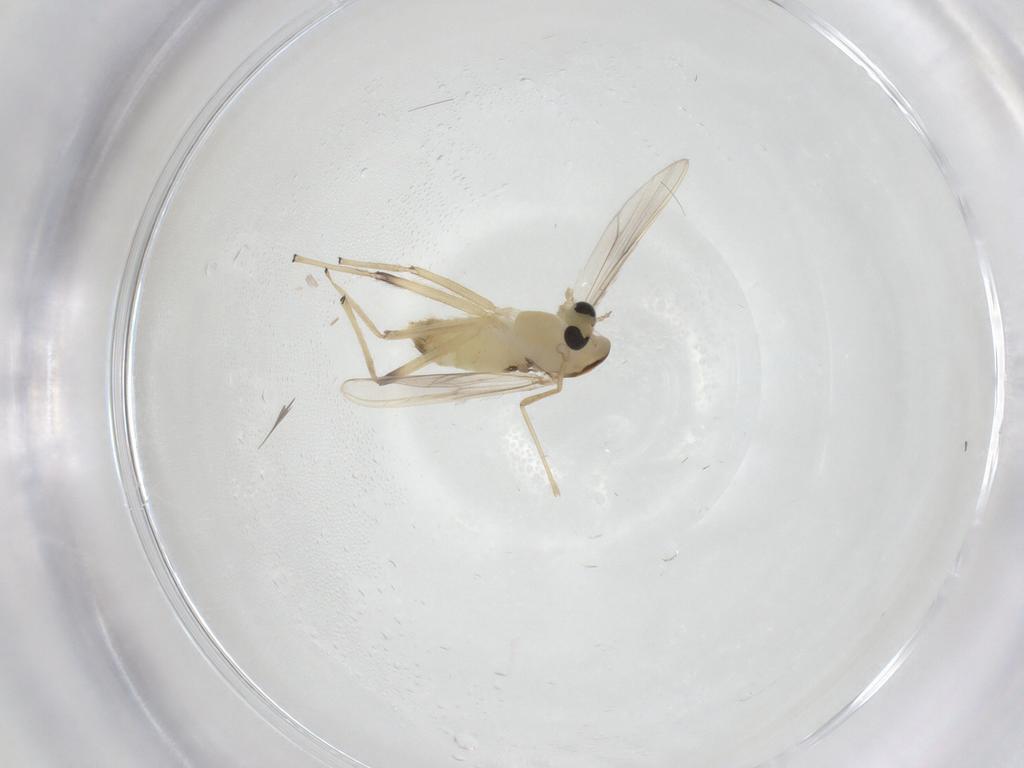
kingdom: Animalia
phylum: Arthropoda
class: Insecta
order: Diptera
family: Chironomidae
